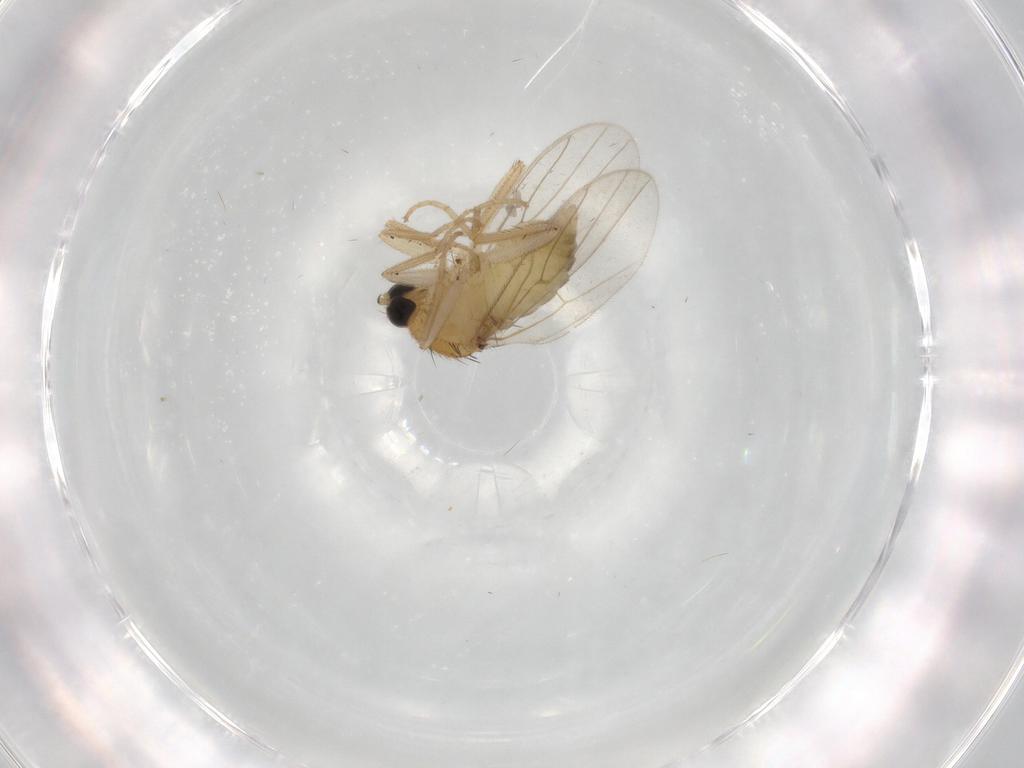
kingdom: Animalia
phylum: Arthropoda
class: Insecta
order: Diptera
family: Hybotidae
